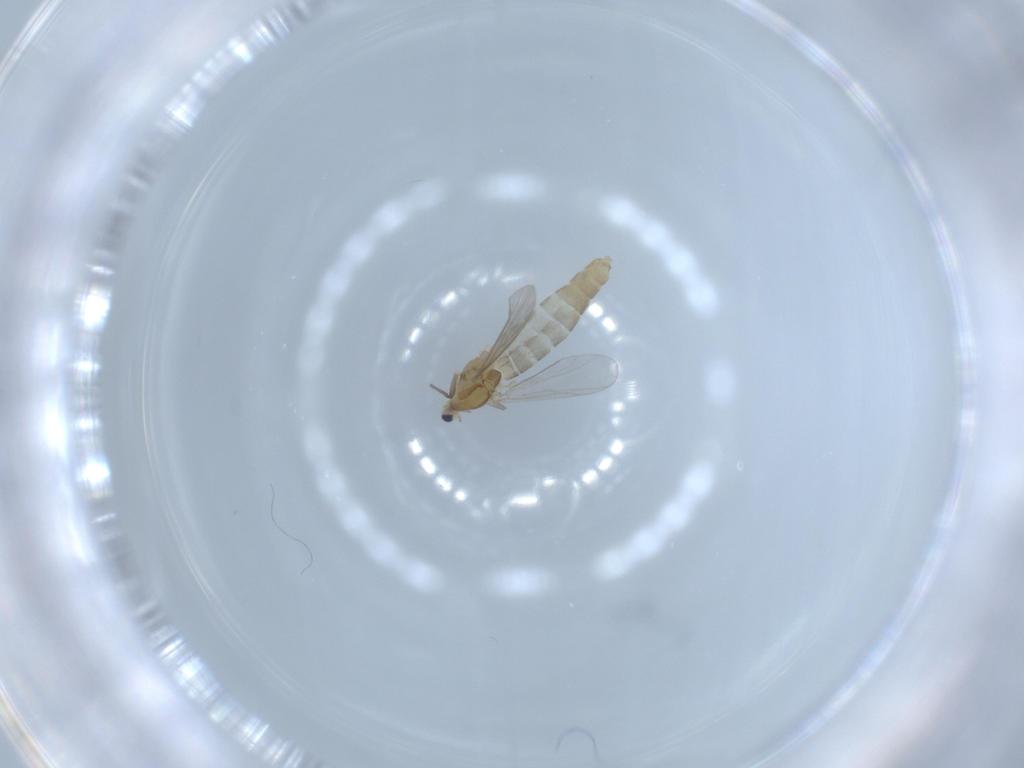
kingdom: Animalia
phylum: Arthropoda
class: Insecta
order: Diptera
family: Chironomidae
